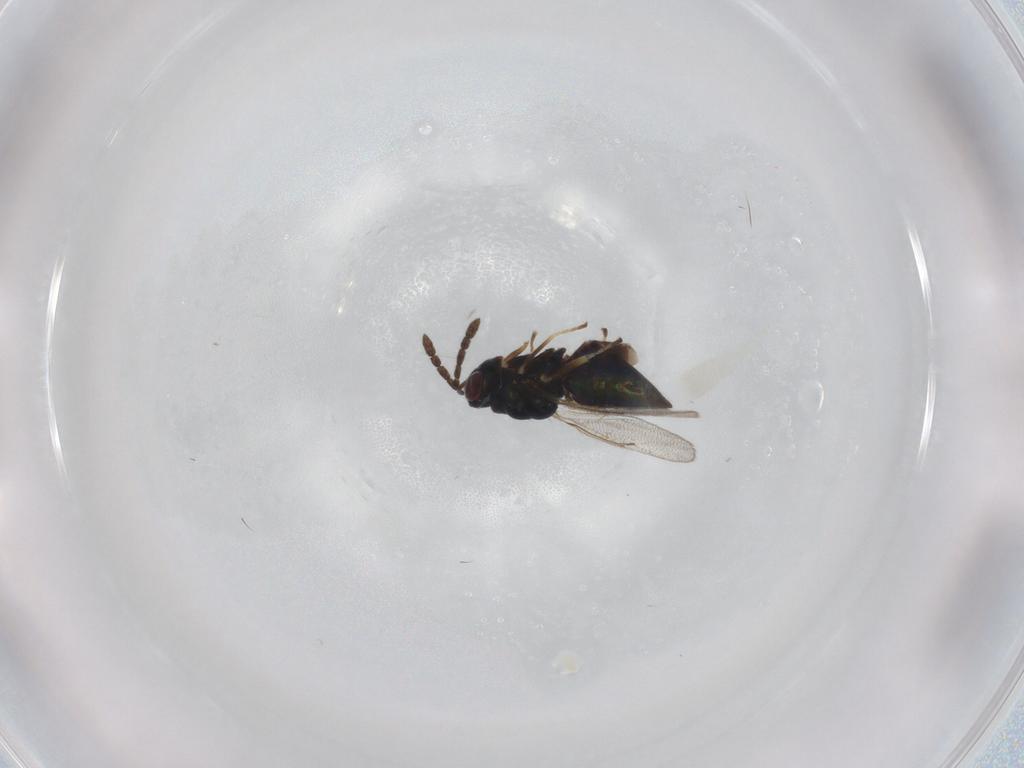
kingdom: Animalia
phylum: Arthropoda
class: Insecta
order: Hymenoptera
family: Eulophidae
